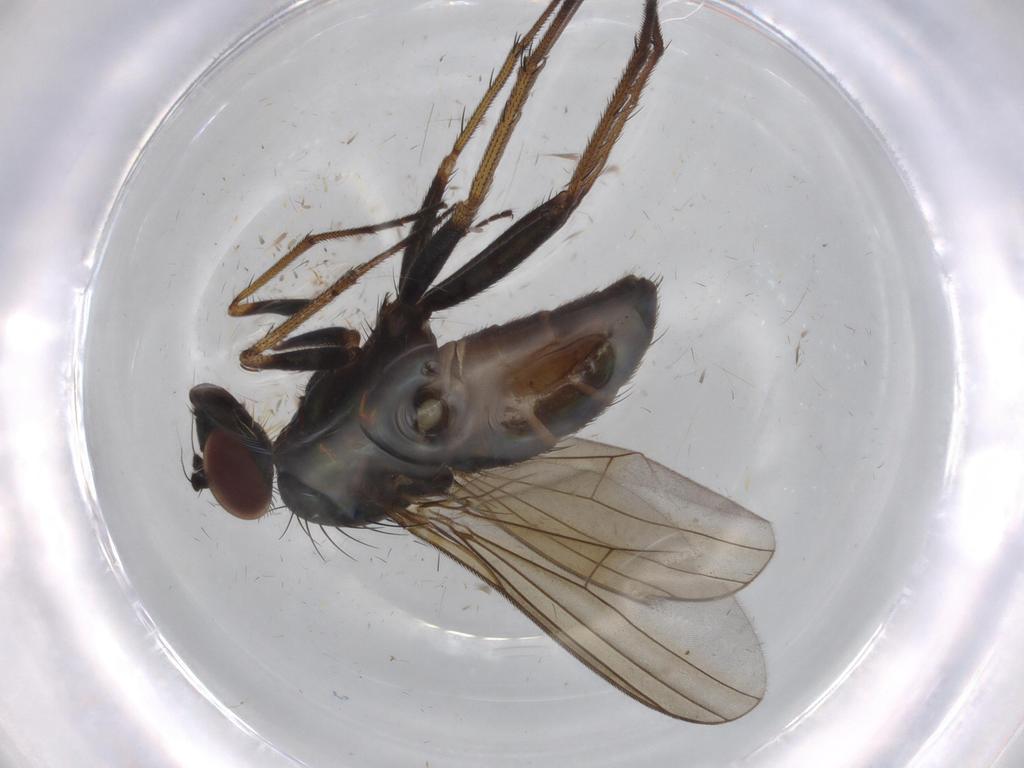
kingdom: Animalia
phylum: Arthropoda
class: Insecta
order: Diptera
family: Dolichopodidae
